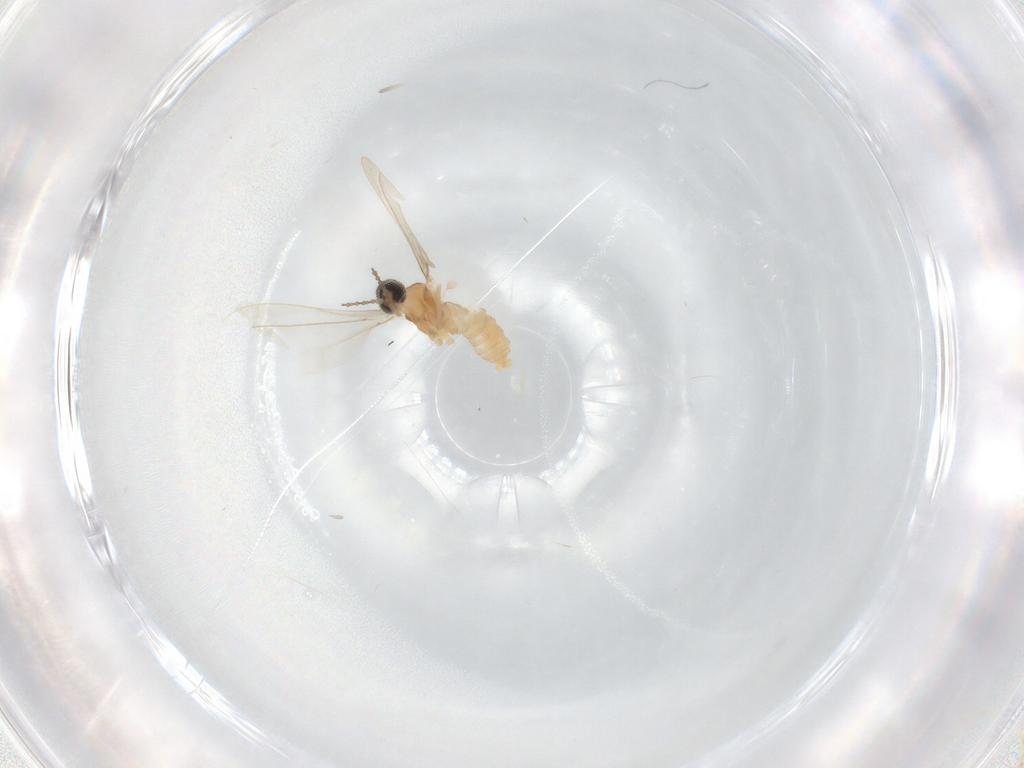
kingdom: Animalia
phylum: Arthropoda
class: Insecta
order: Diptera
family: Cecidomyiidae
